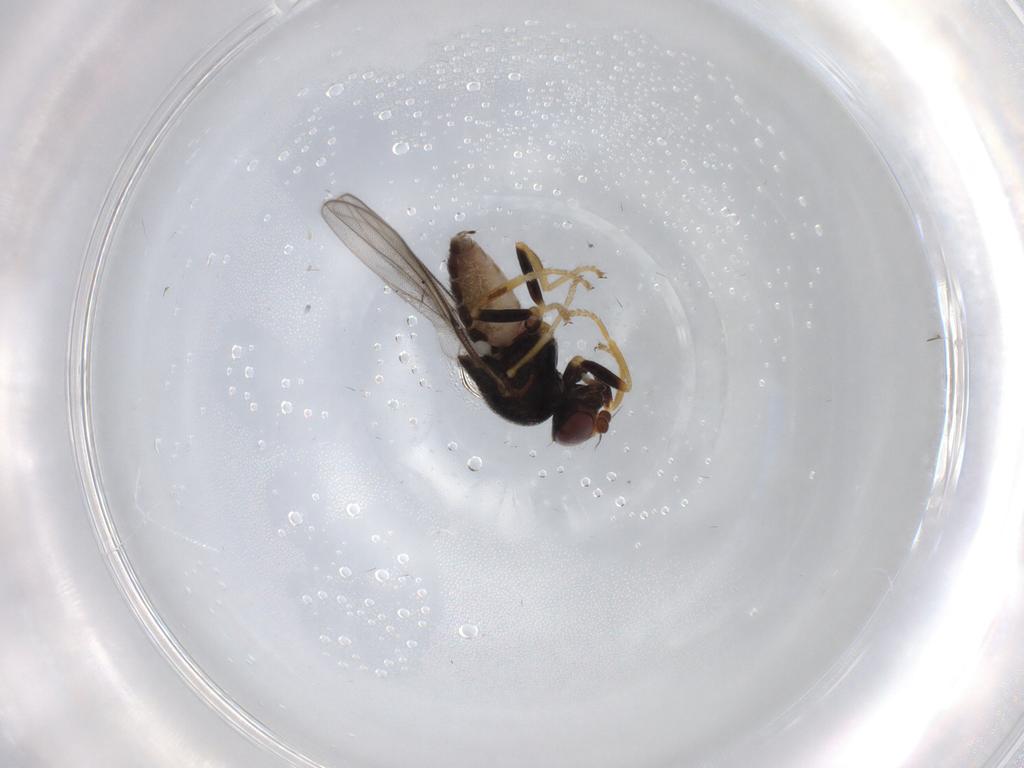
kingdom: Animalia
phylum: Arthropoda
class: Insecta
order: Diptera
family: Chloropidae
